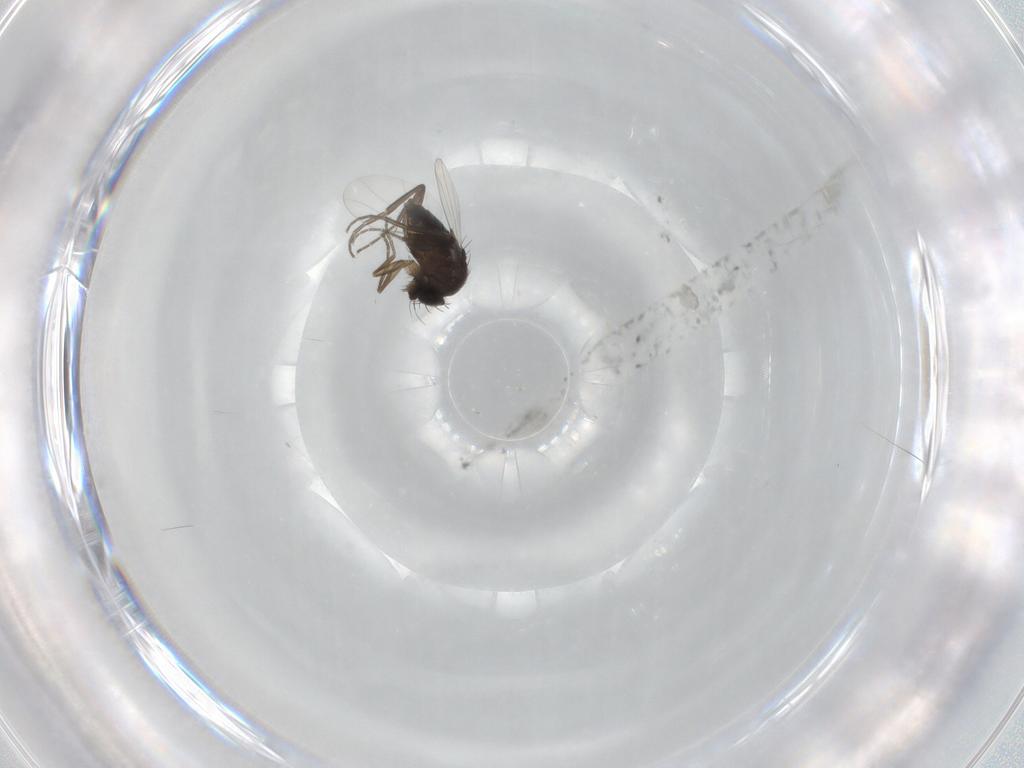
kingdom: Animalia
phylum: Arthropoda
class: Insecta
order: Diptera
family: Phoridae
